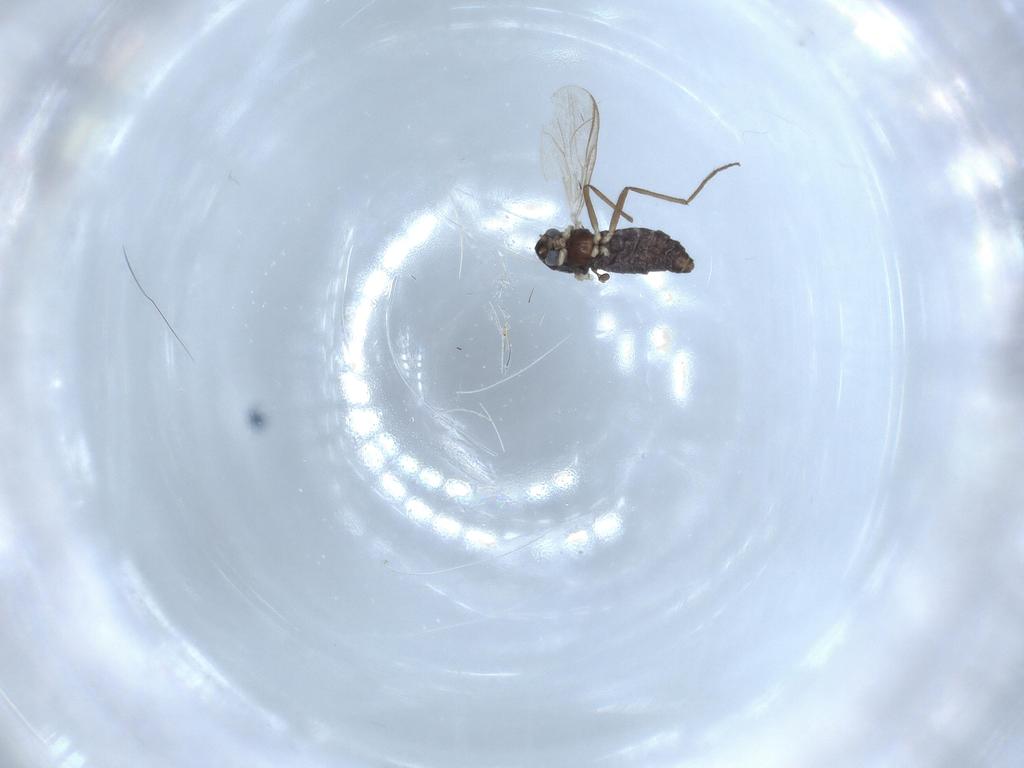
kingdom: Animalia
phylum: Arthropoda
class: Insecta
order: Diptera
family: Chironomidae
